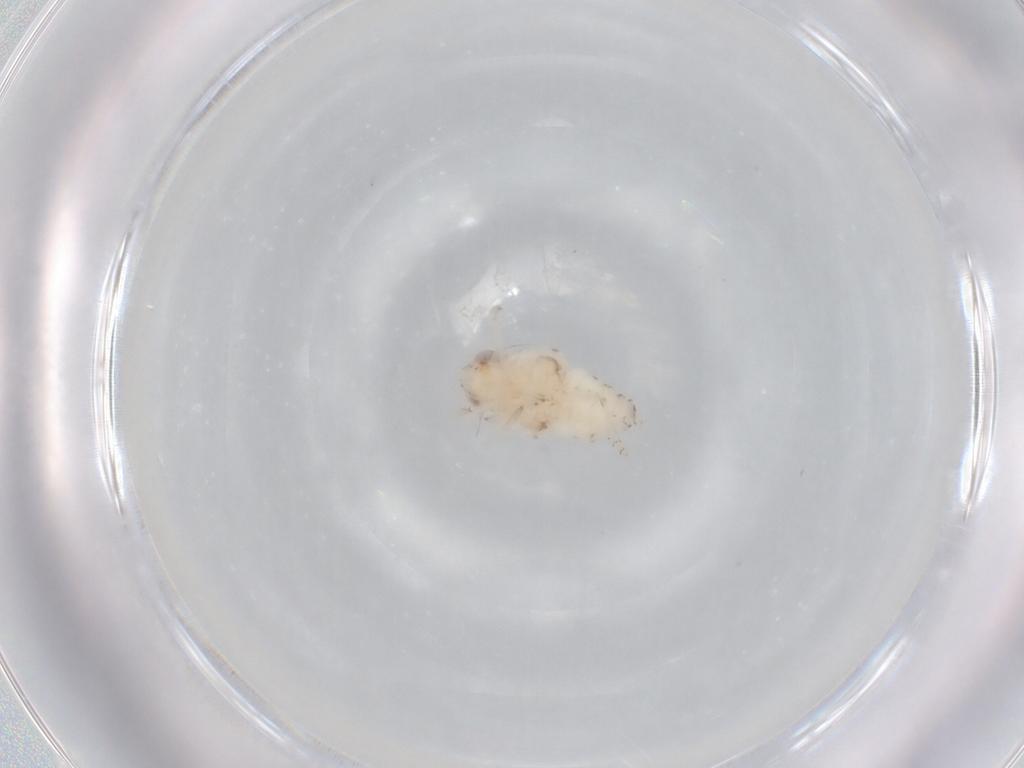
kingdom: Animalia
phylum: Arthropoda
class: Insecta
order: Hemiptera
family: Nogodinidae
